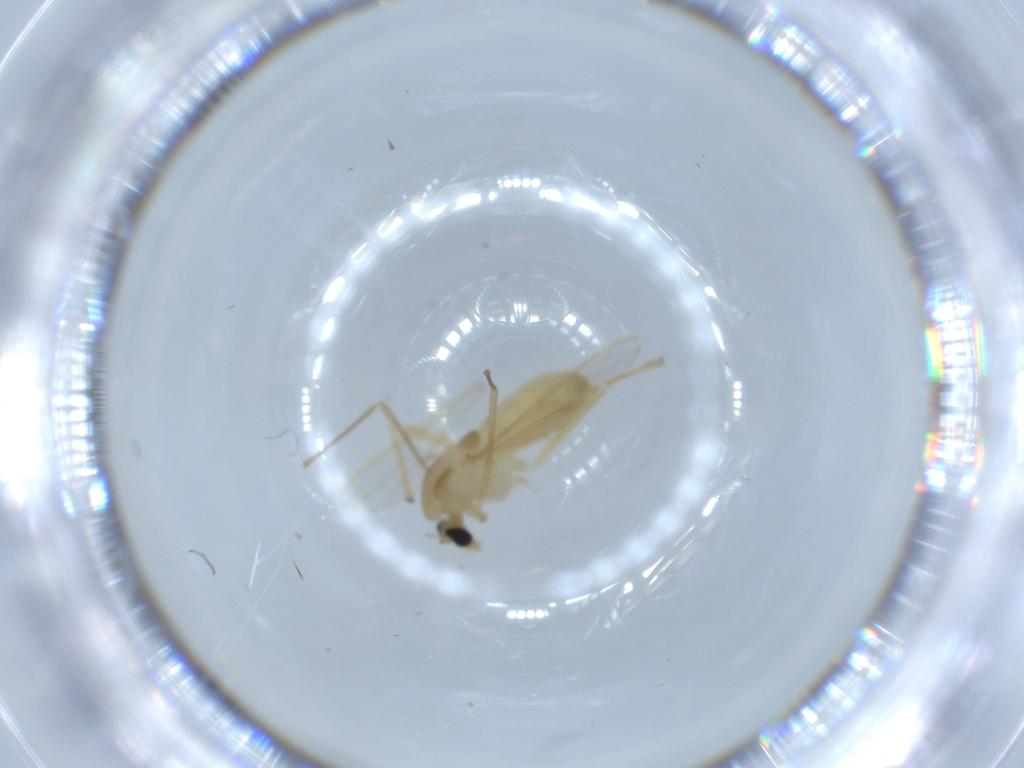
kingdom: Animalia
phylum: Arthropoda
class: Insecta
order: Diptera
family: Chironomidae
